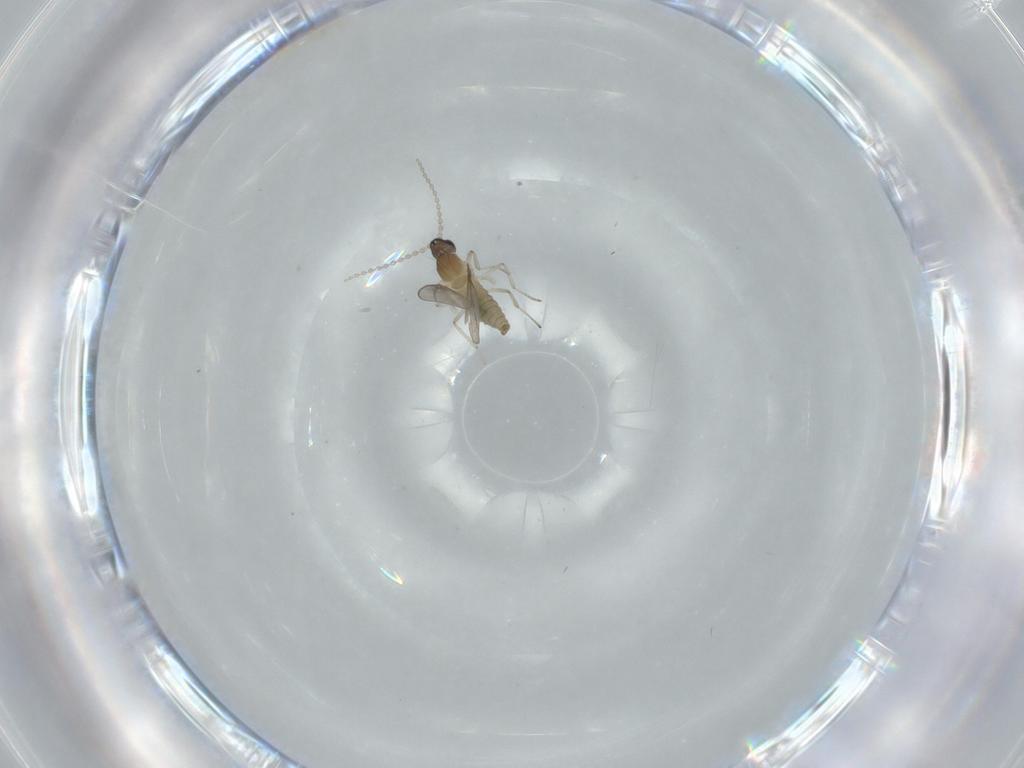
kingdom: Animalia
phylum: Arthropoda
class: Insecta
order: Diptera
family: Cecidomyiidae
